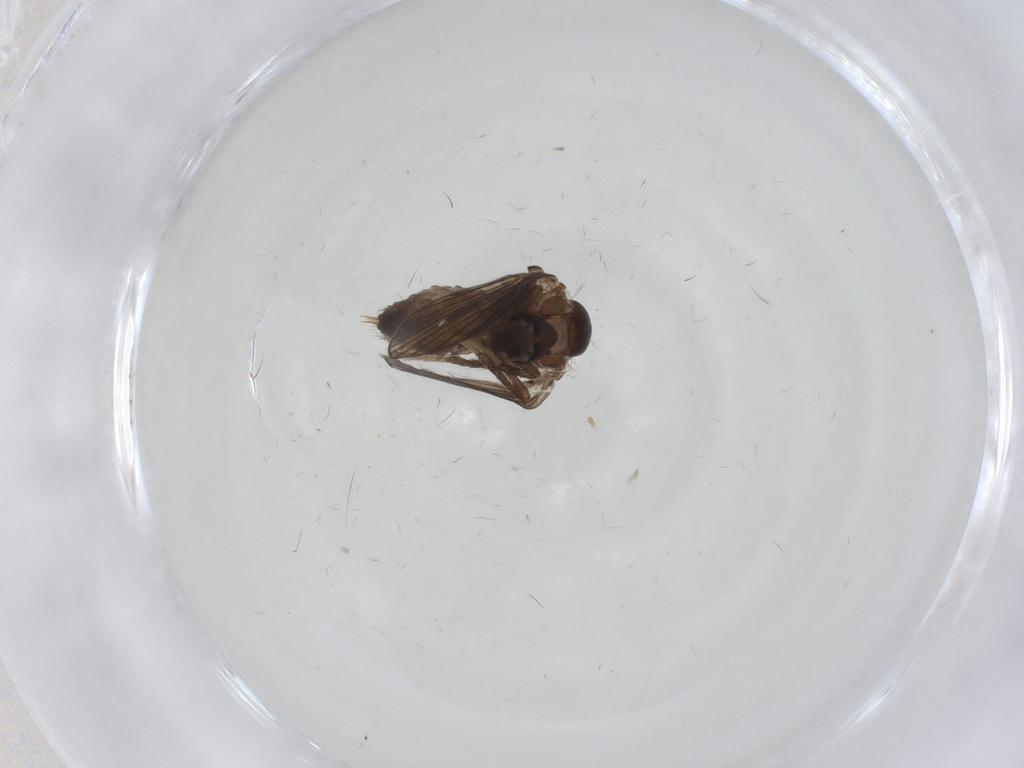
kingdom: Animalia
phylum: Arthropoda
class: Insecta
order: Diptera
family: Psychodidae
